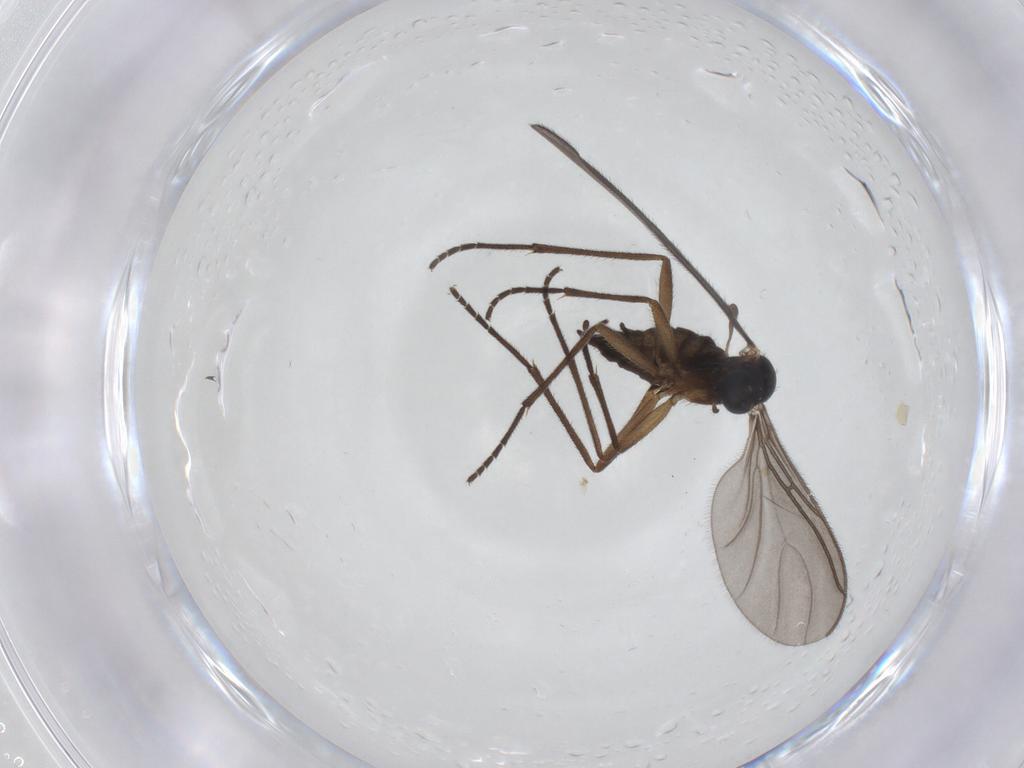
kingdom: Animalia
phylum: Arthropoda
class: Insecta
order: Diptera
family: Sciaridae
